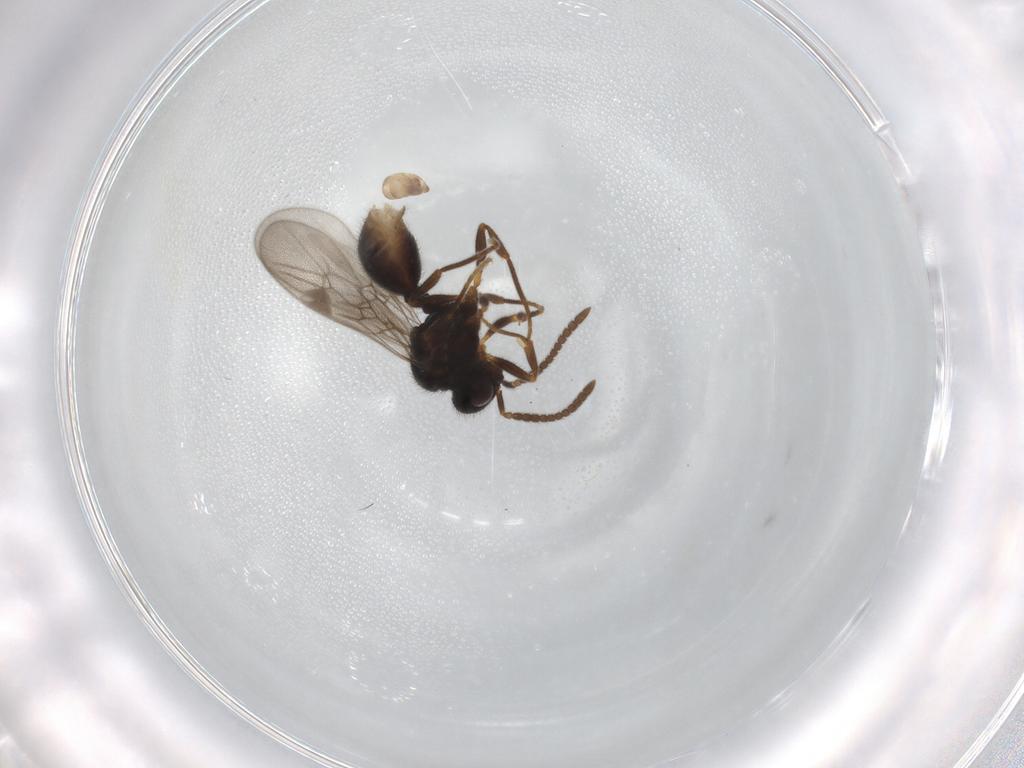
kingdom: Animalia
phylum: Arthropoda
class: Insecta
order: Hymenoptera
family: Formicidae
